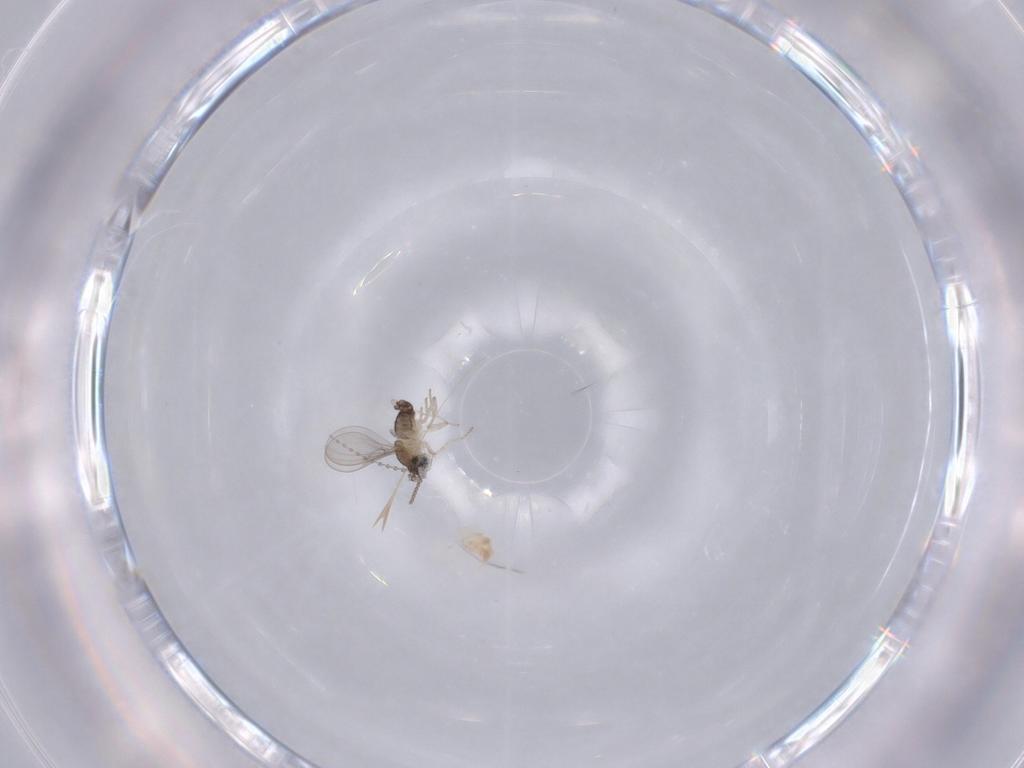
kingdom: Animalia
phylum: Arthropoda
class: Insecta
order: Diptera
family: Cecidomyiidae
